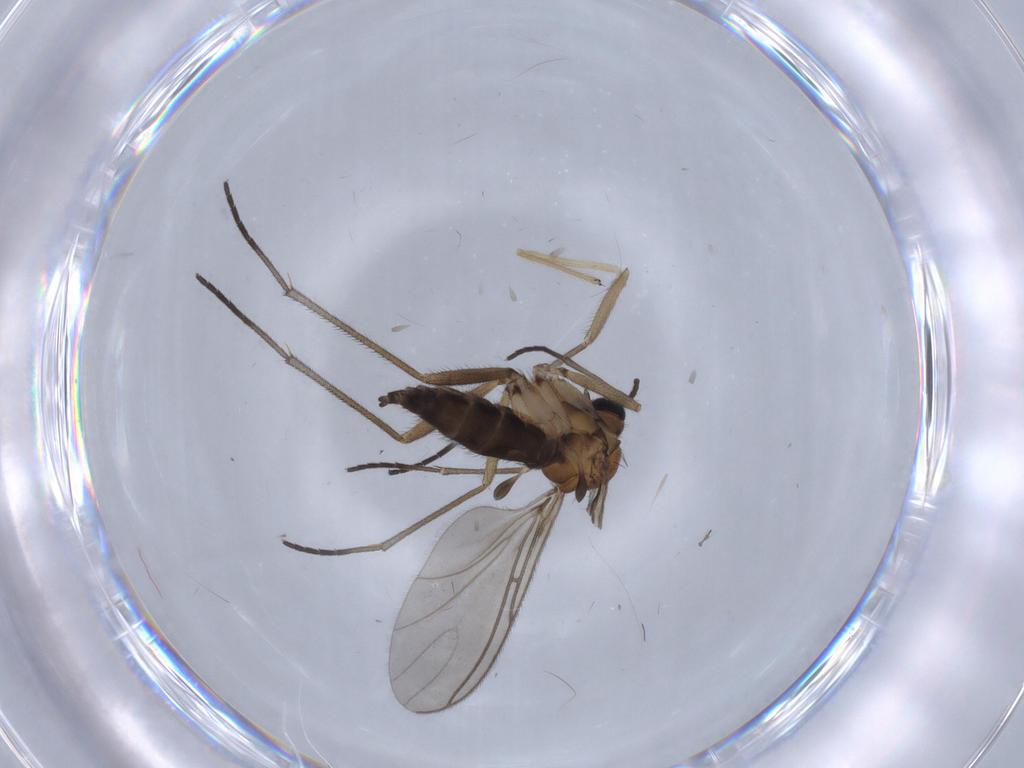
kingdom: Animalia
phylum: Arthropoda
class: Insecta
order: Diptera
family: Sciaridae
